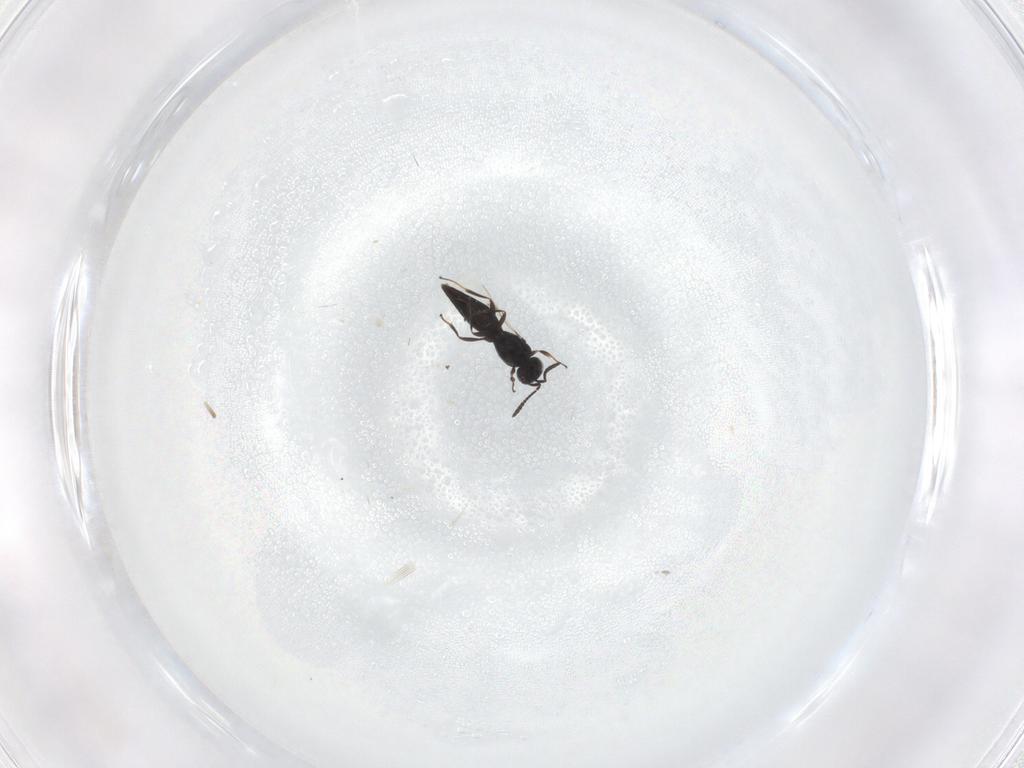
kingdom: Animalia
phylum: Arthropoda
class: Insecta
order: Hymenoptera
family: Scelionidae
